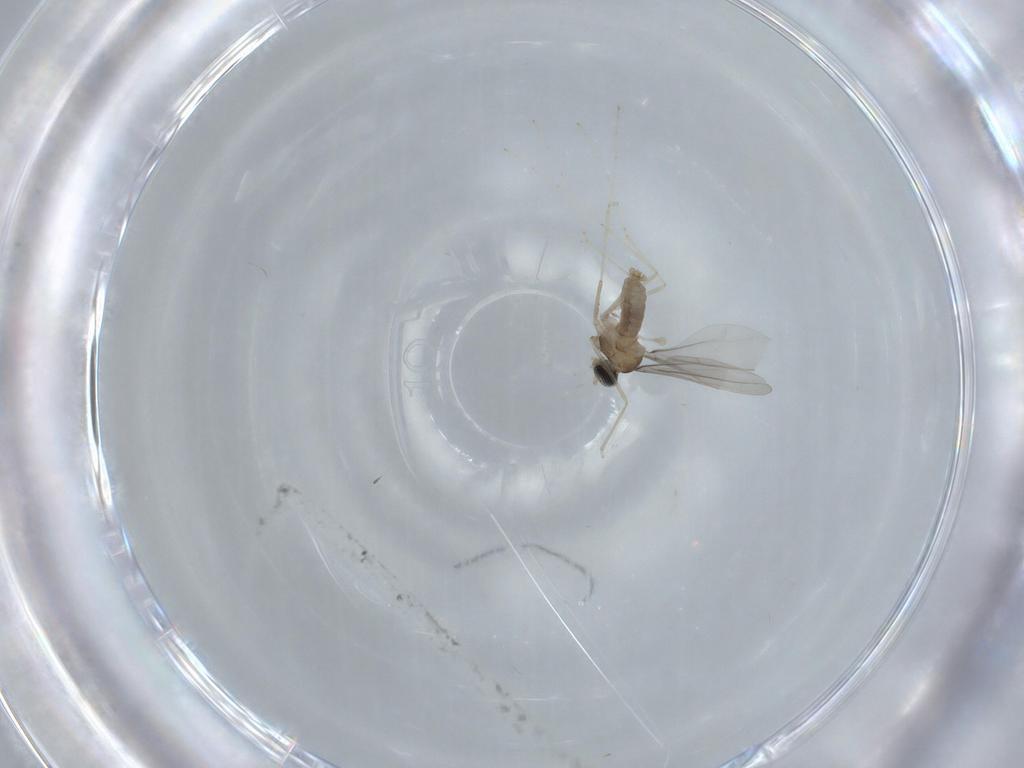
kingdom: Animalia
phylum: Arthropoda
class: Insecta
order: Diptera
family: Cecidomyiidae
